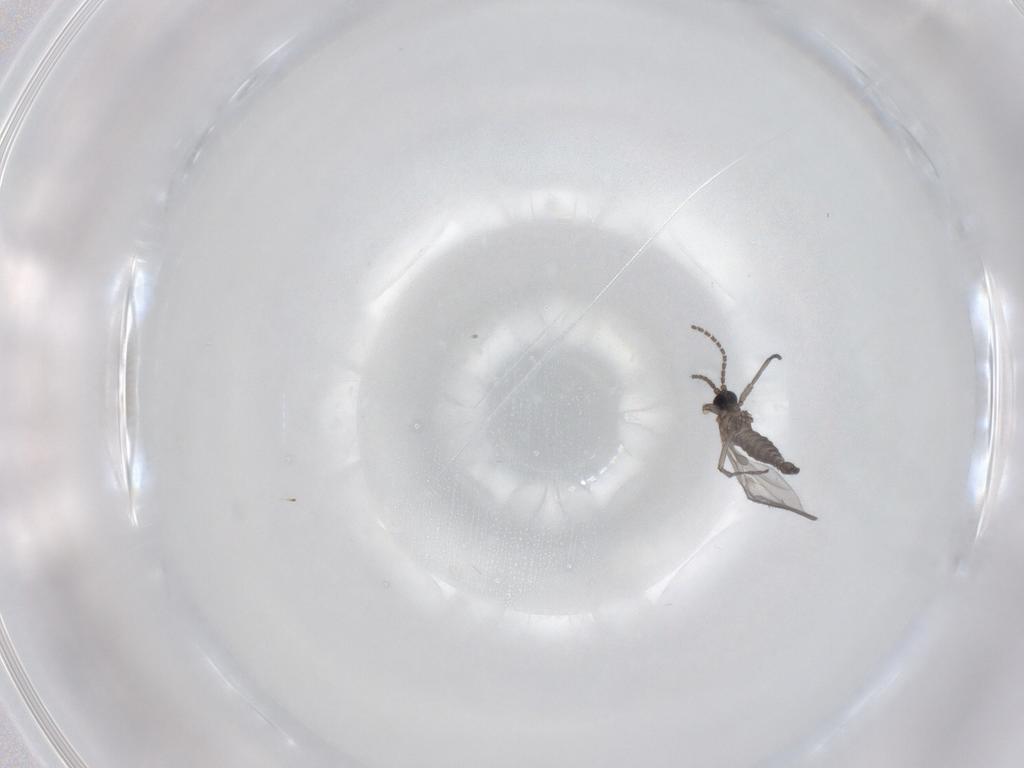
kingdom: Animalia
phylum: Arthropoda
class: Insecta
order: Diptera
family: Sciaridae
